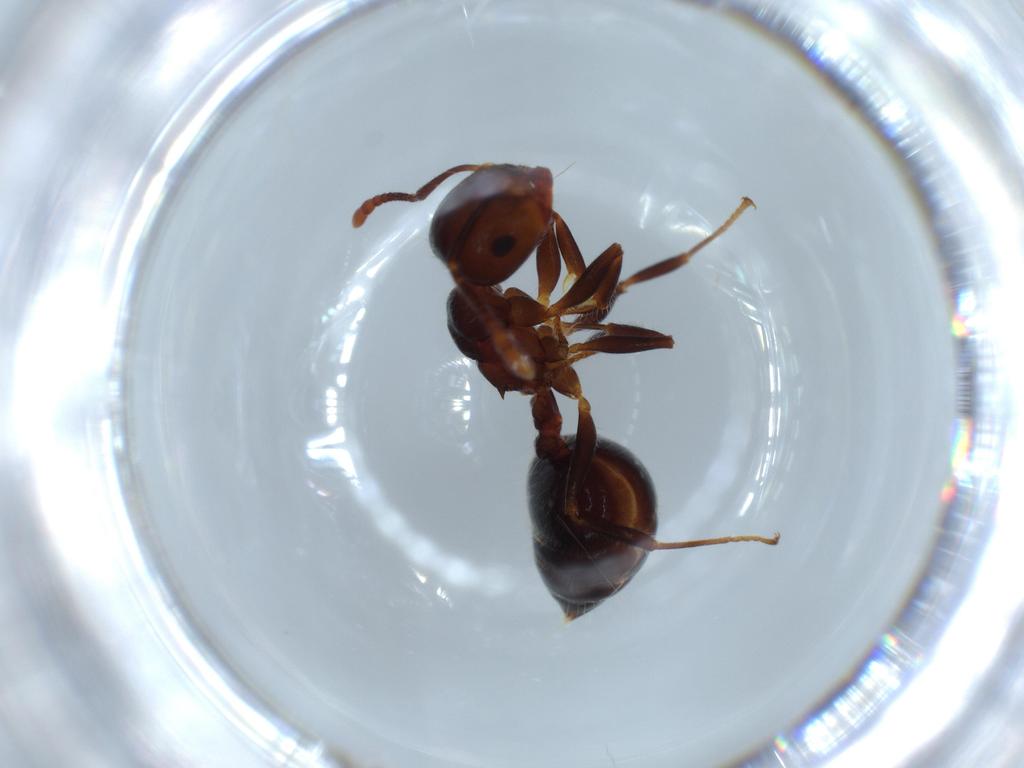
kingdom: Animalia
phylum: Arthropoda
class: Insecta
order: Hymenoptera
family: Formicidae
